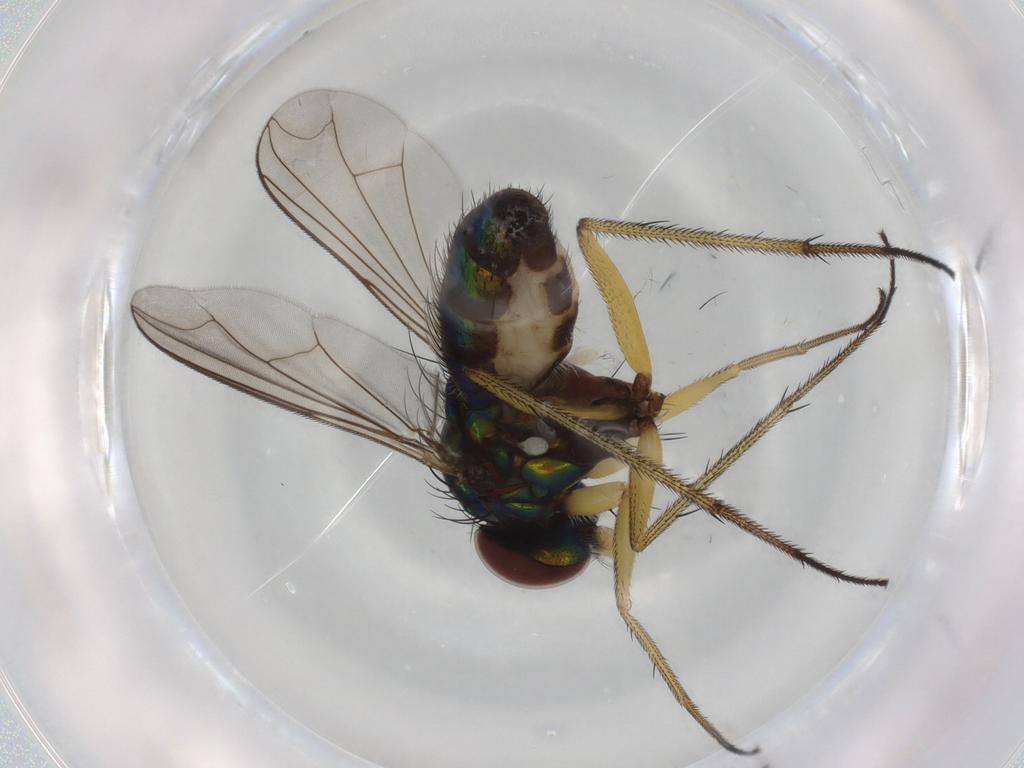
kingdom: Animalia
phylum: Arthropoda
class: Insecta
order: Diptera
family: Dolichopodidae
